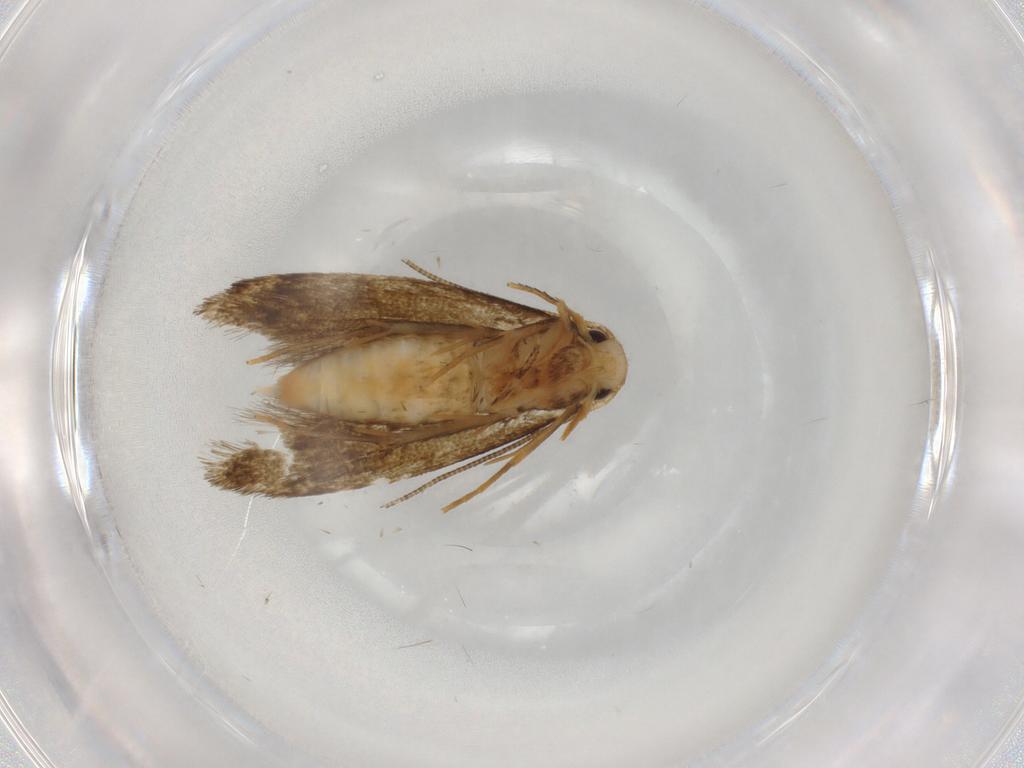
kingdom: Animalia
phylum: Arthropoda
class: Insecta
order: Lepidoptera
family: Tineidae
